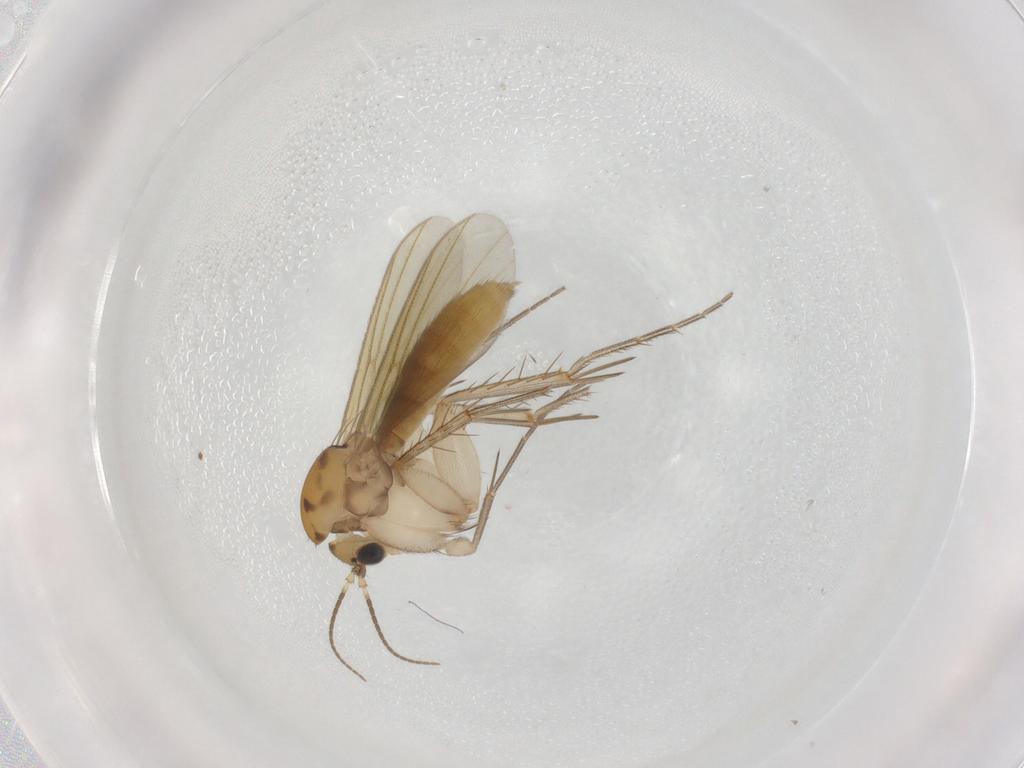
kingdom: Animalia
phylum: Arthropoda
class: Insecta
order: Diptera
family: Mycetophilidae
